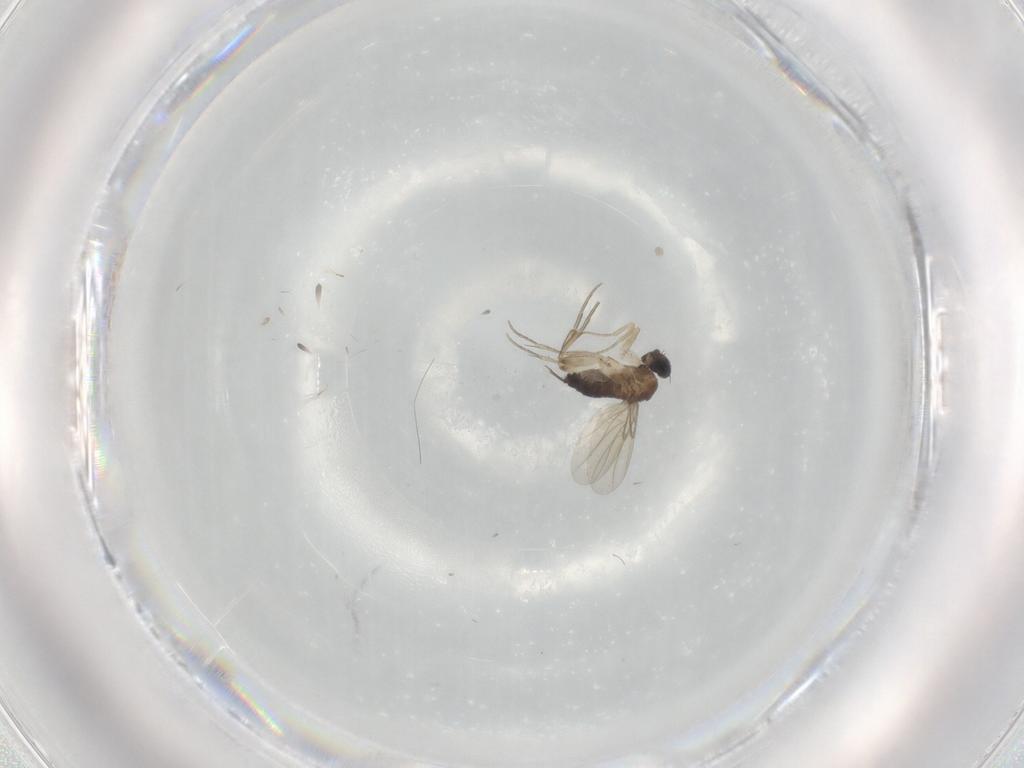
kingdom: Animalia
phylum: Arthropoda
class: Insecta
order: Diptera
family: Phoridae
